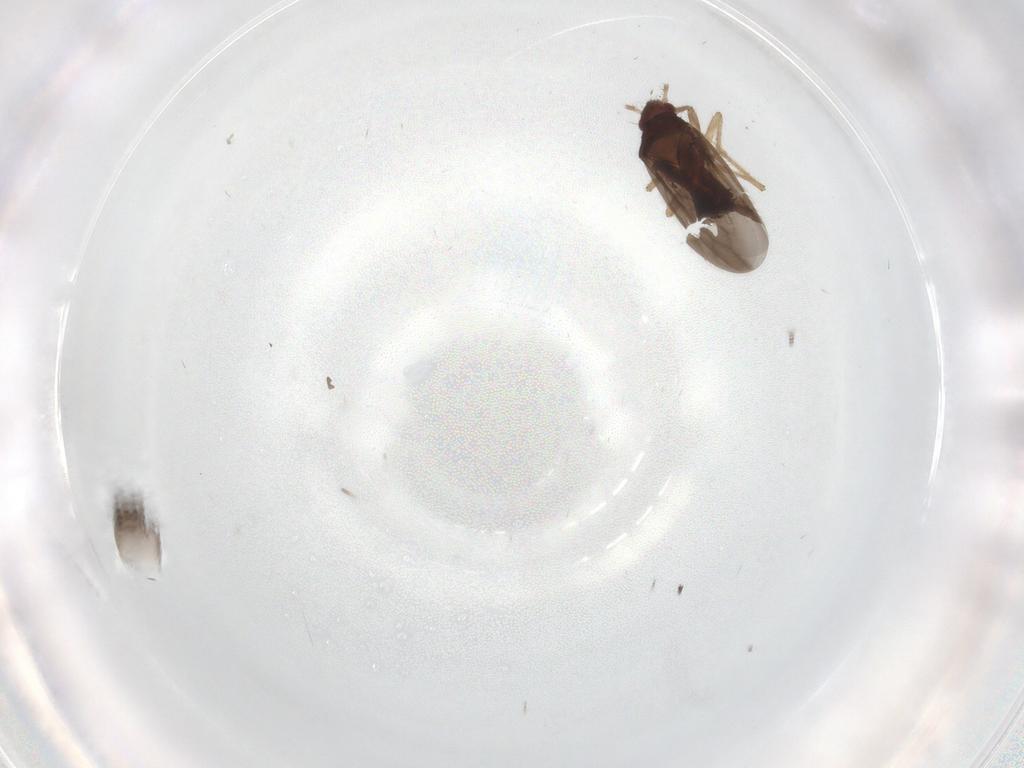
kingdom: Animalia
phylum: Arthropoda
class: Insecta
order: Hemiptera
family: Ceratocombidae
